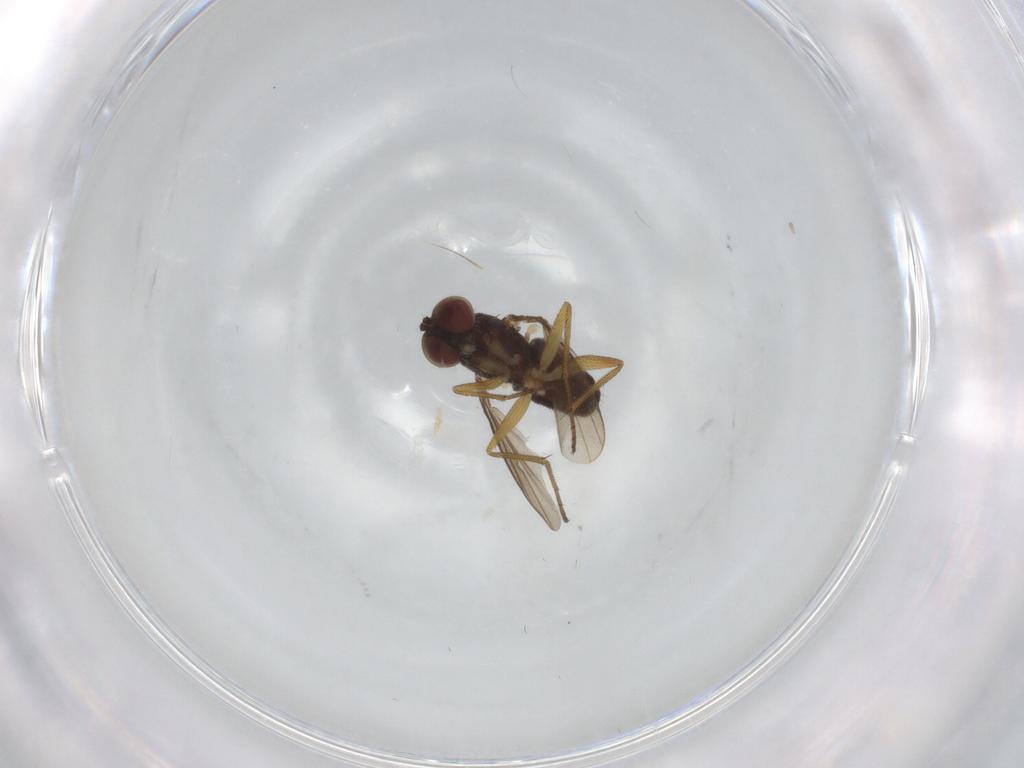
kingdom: Animalia
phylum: Arthropoda
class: Insecta
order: Diptera
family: Dolichopodidae
